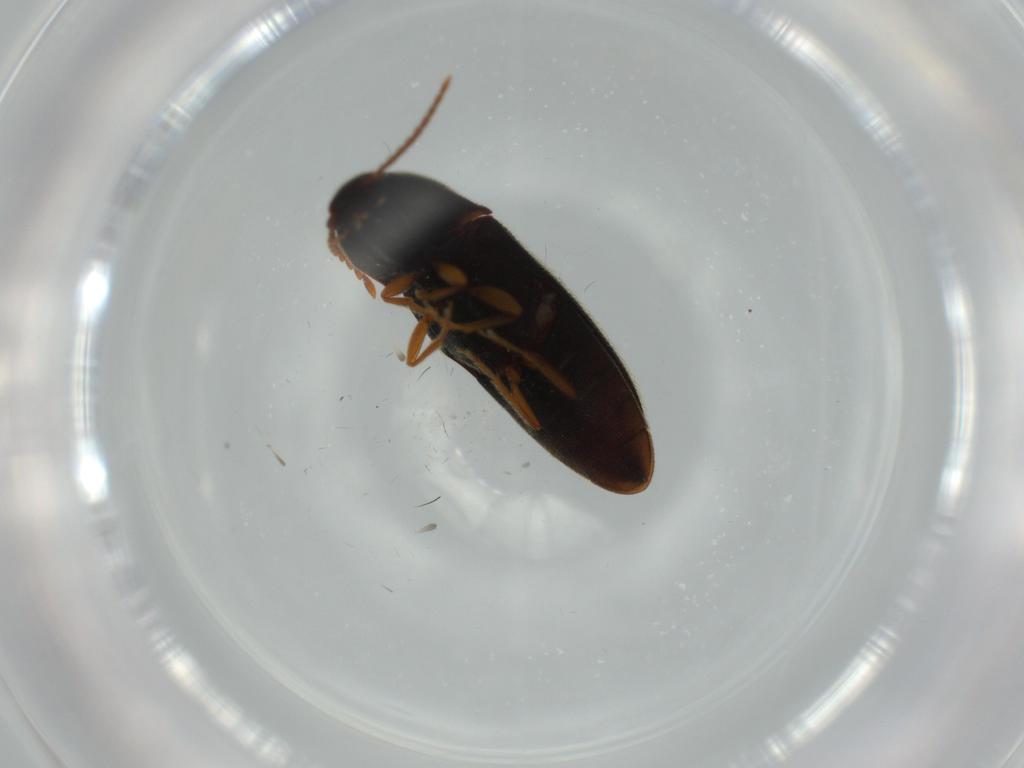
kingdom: Animalia
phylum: Arthropoda
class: Insecta
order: Coleoptera
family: Elateridae
